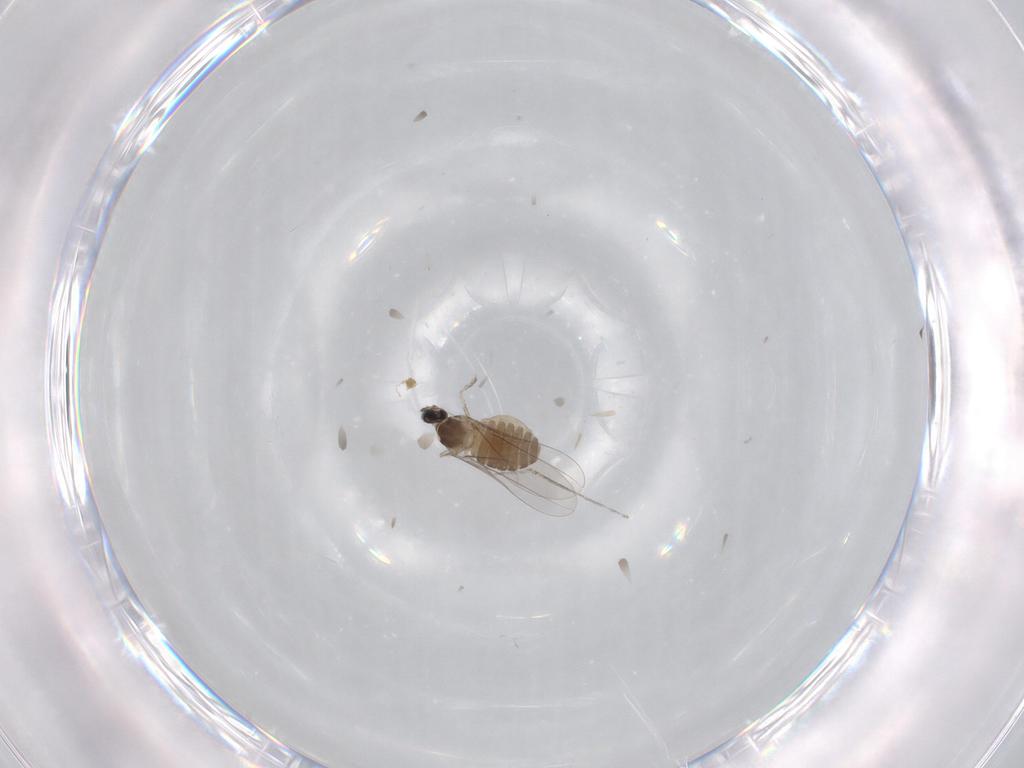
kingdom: Animalia
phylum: Arthropoda
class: Insecta
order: Diptera
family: Cecidomyiidae
